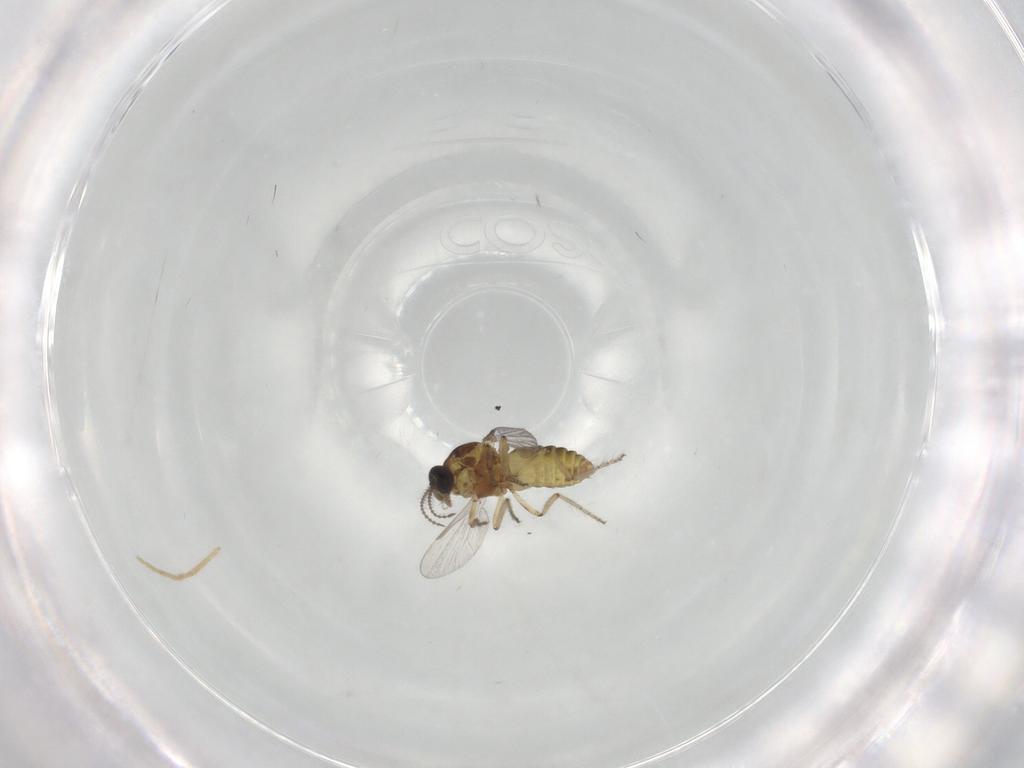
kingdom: Animalia
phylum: Arthropoda
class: Insecta
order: Diptera
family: Ceratopogonidae
